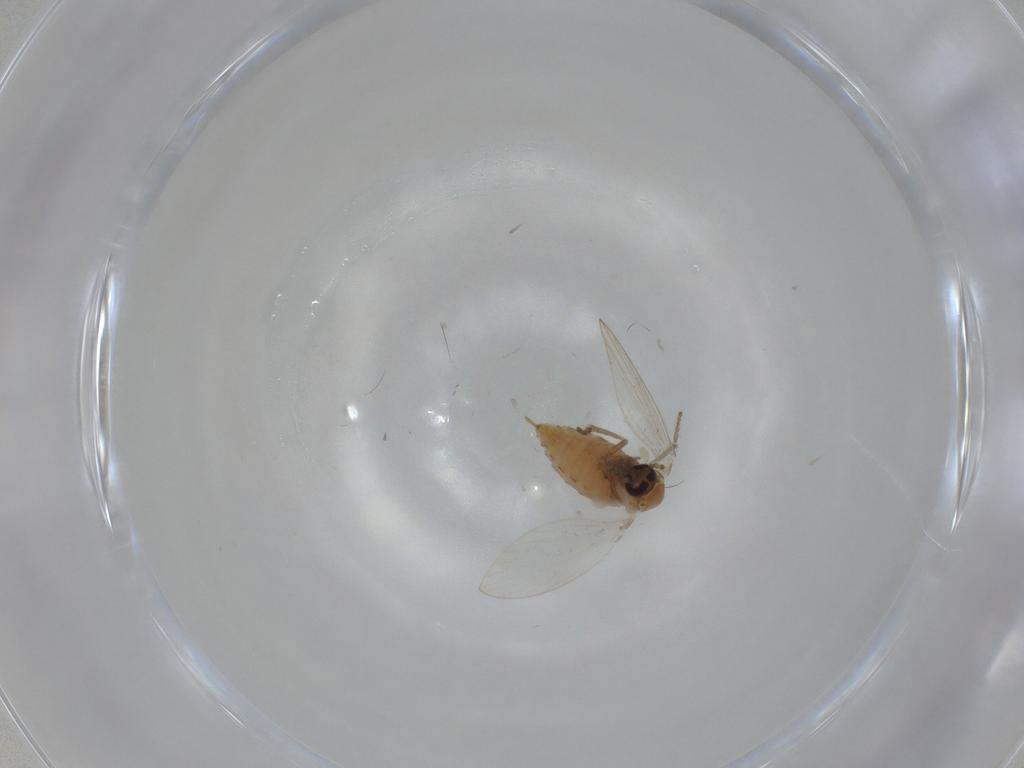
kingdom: Animalia
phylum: Arthropoda
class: Insecta
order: Diptera
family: Psychodidae
